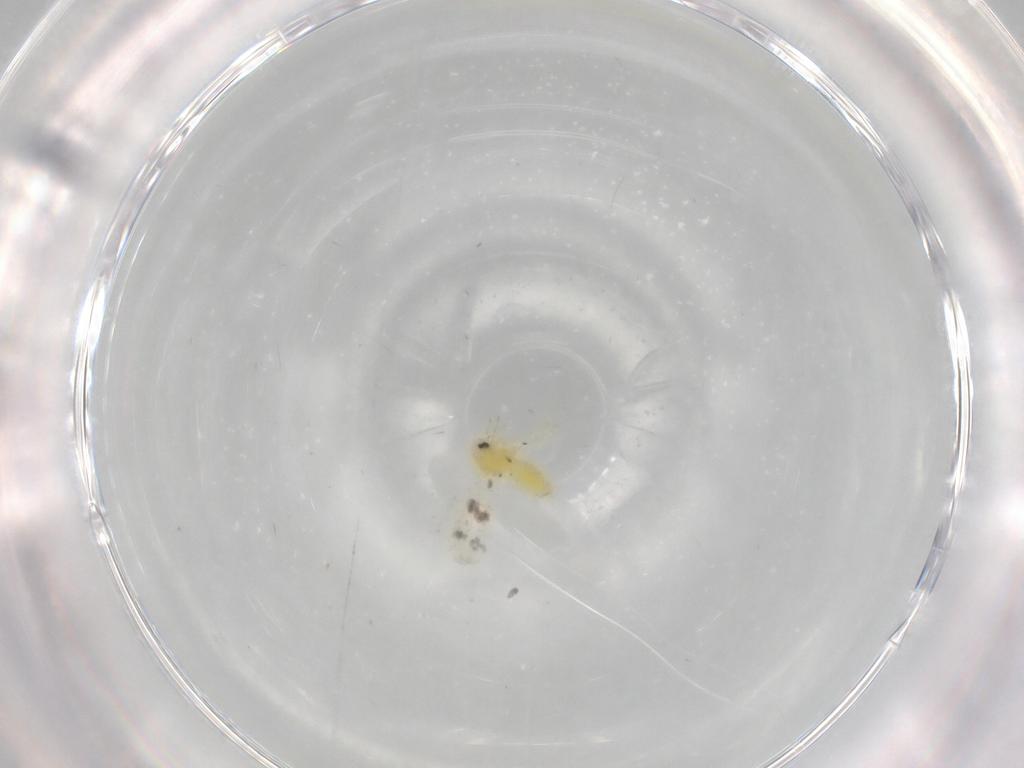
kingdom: Animalia
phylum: Arthropoda
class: Insecta
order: Hemiptera
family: Aleyrodidae
